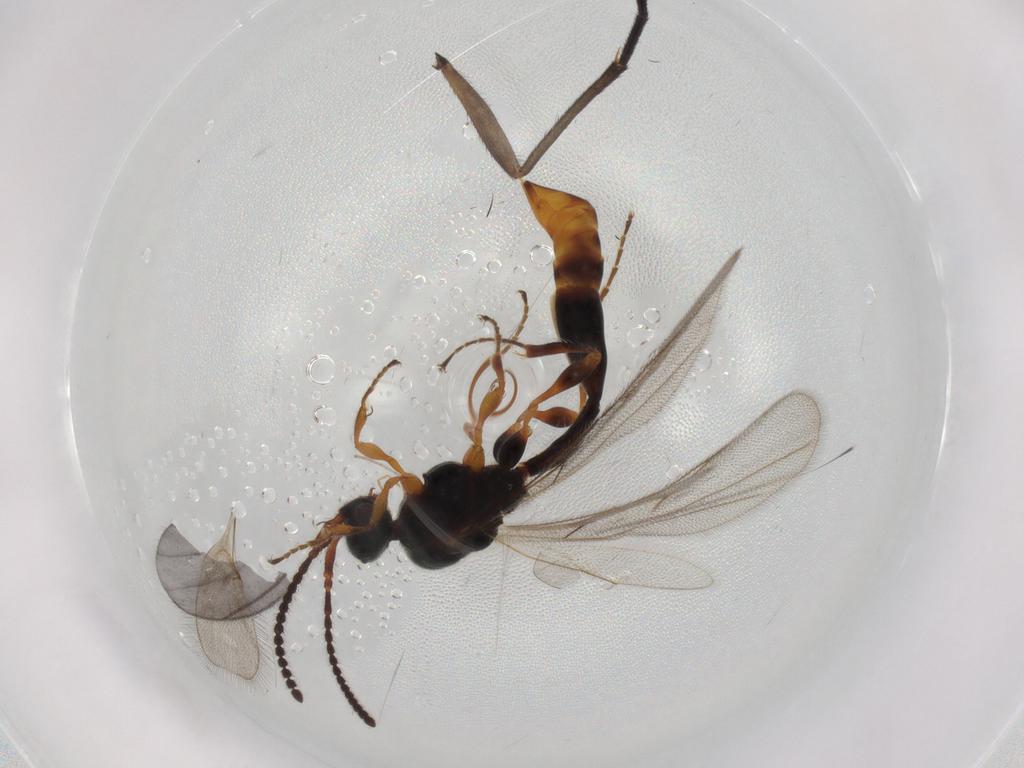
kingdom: Animalia
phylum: Arthropoda
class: Insecta
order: Hymenoptera
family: Diapriidae
